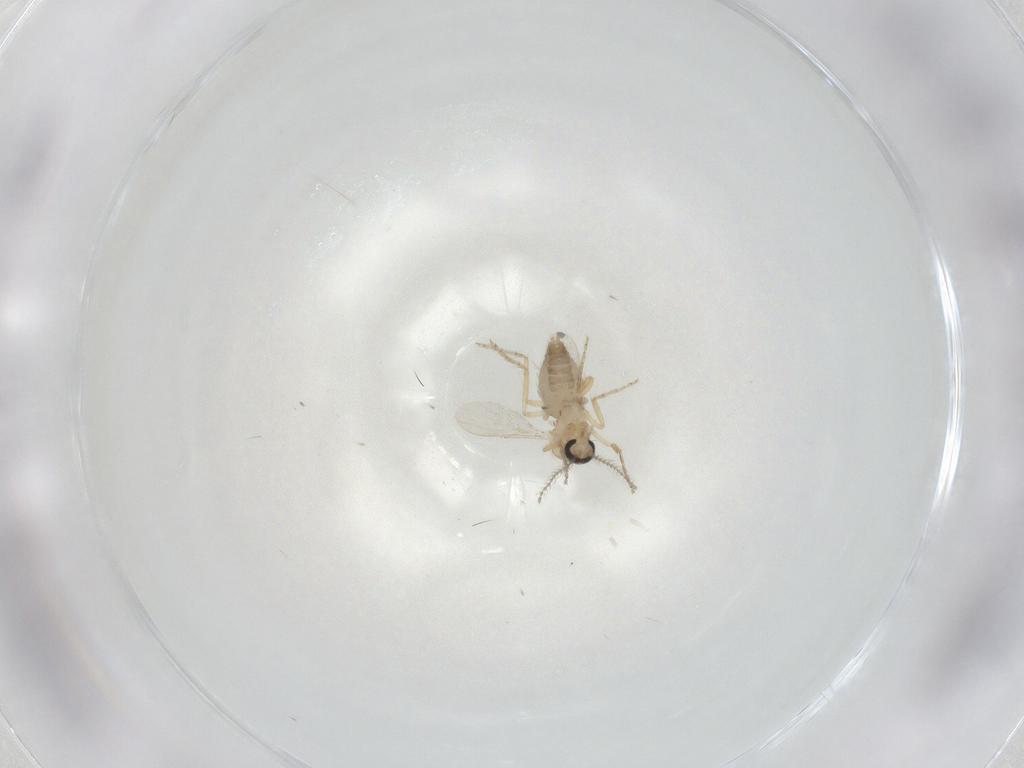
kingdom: Animalia
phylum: Arthropoda
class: Insecta
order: Diptera
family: Ceratopogonidae
